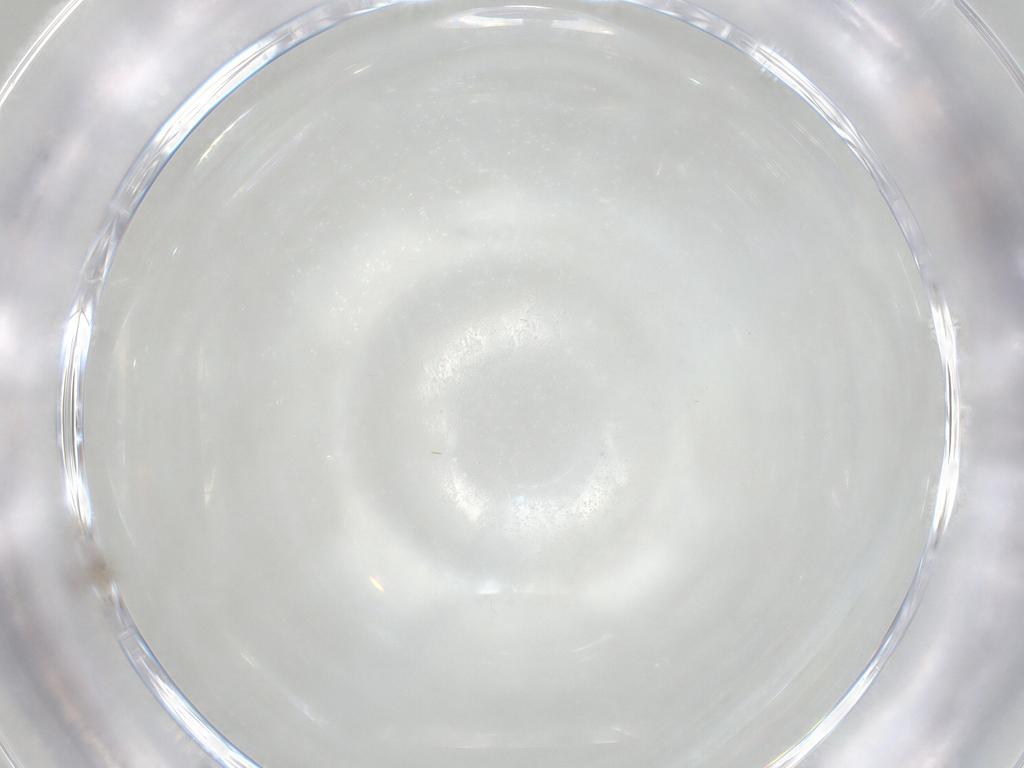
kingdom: Animalia
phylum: Arthropoda
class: Insecta
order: Hymenoptera
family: Mymaridae
